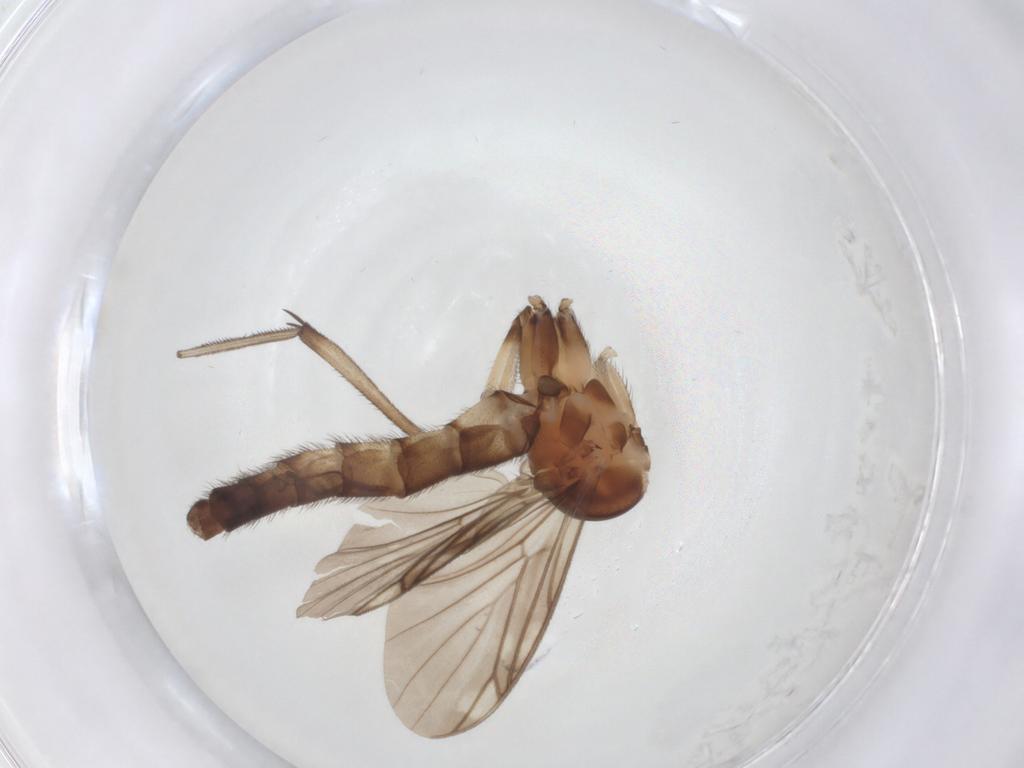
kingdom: Animalia
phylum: Arthropoda
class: Insecta
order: Diptera
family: Keroplatidae
